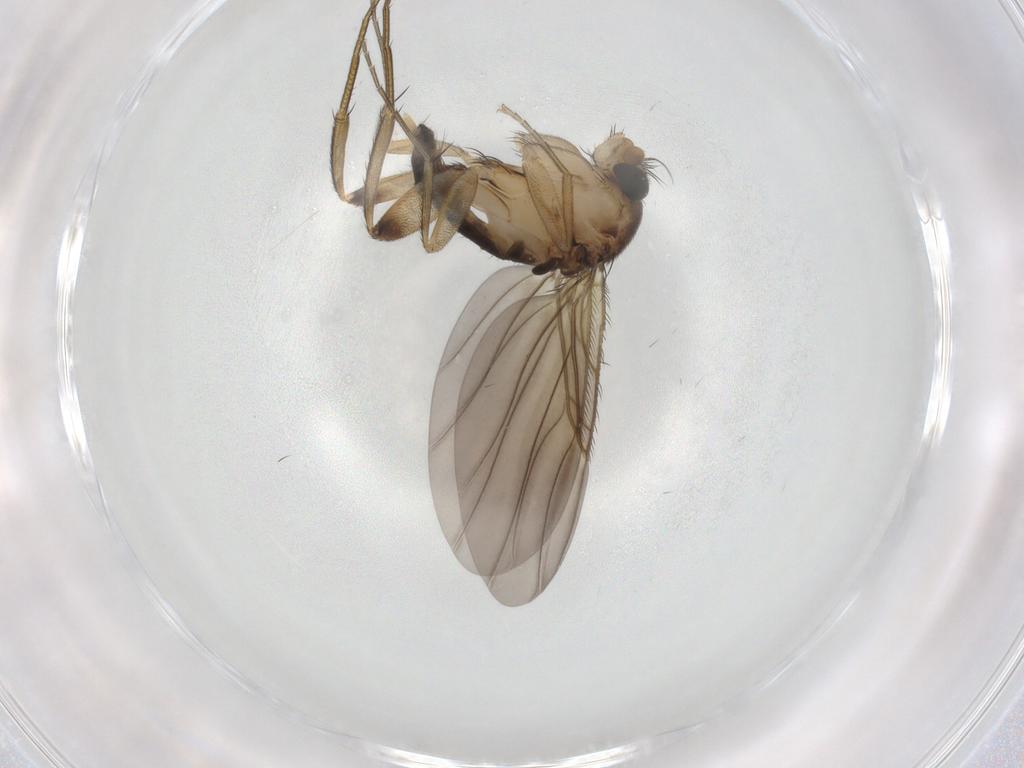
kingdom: Animalia
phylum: Arthropoda
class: Insecta
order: Diptera
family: Phoridae
